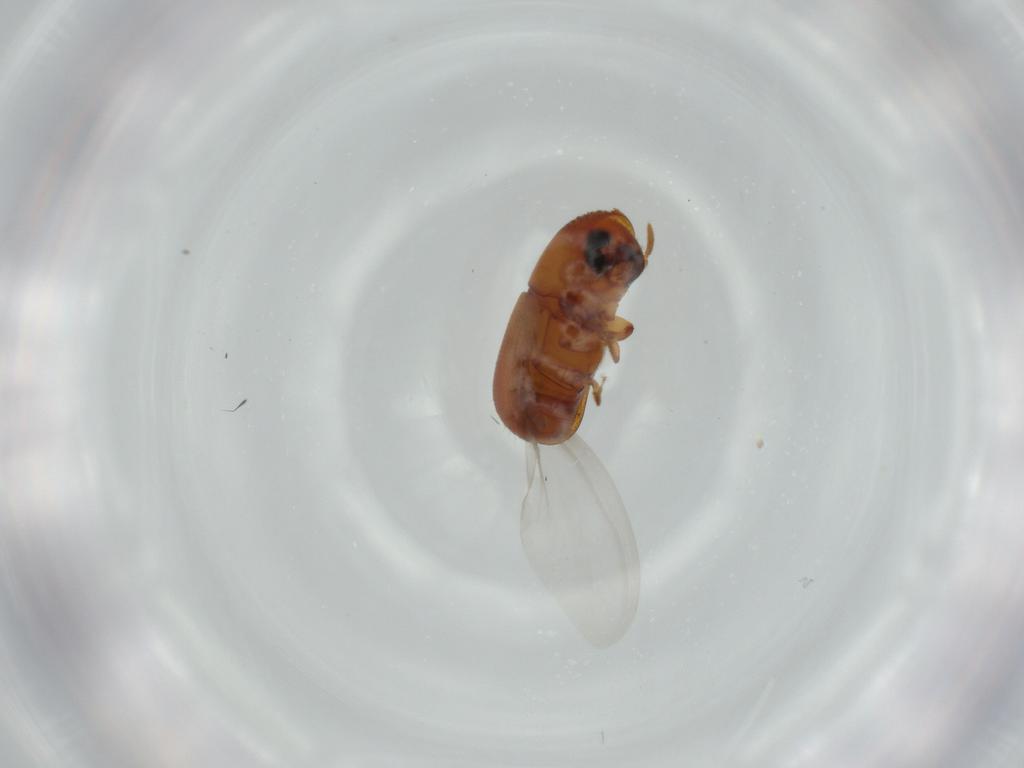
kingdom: Animalia
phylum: Arthropoda
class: Insecta
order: Coleoptera
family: Curculionidae
